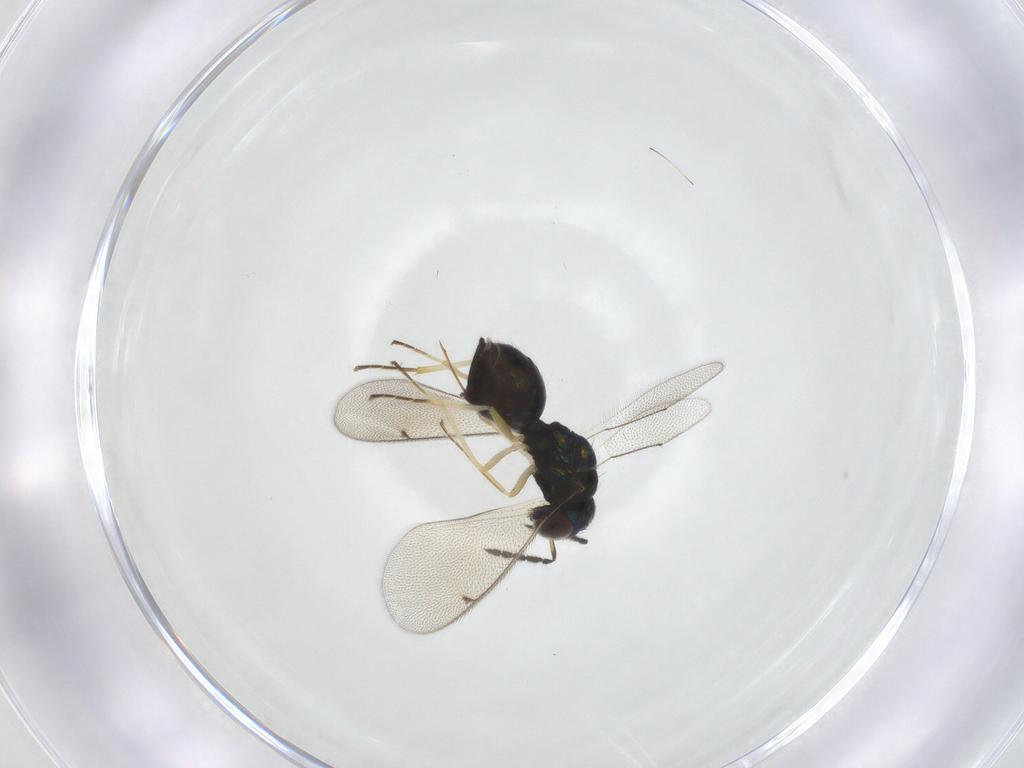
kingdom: Animalia
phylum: Arthropoda
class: Insecta
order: Hymenoptera
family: Eulophidae
